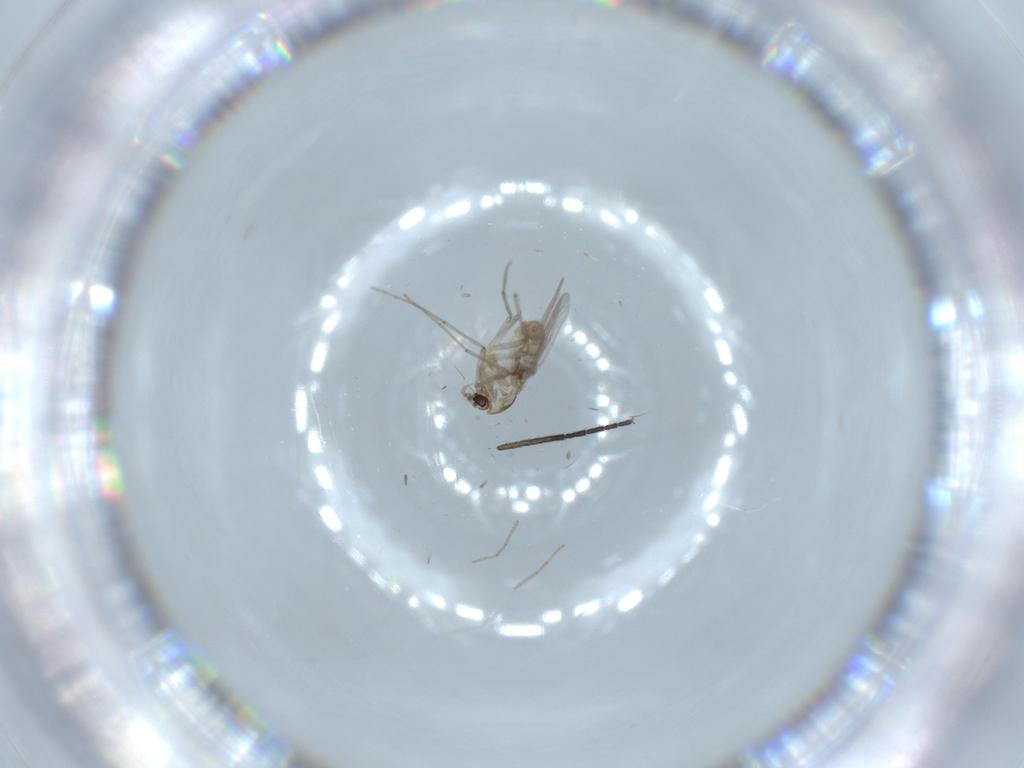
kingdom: Animalia
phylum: Arthropoda
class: Insecta
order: Diptera
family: Chironomidae
